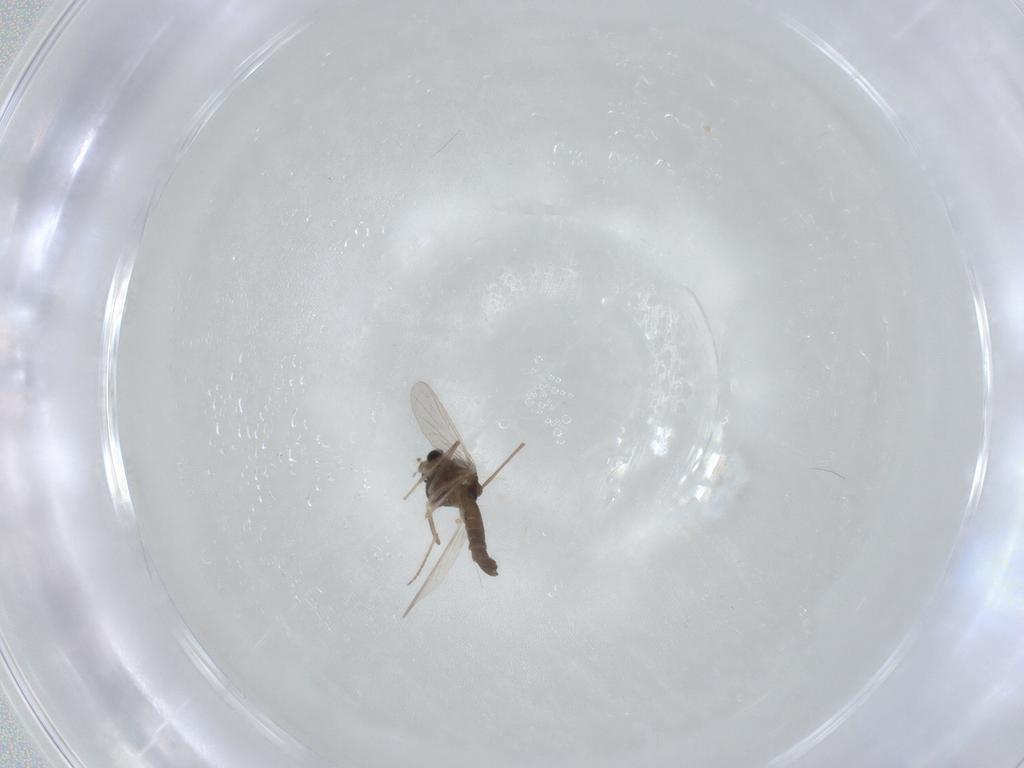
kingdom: Animalia
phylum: Arthropoda
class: Insecta
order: Diptera
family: Chironomidae
